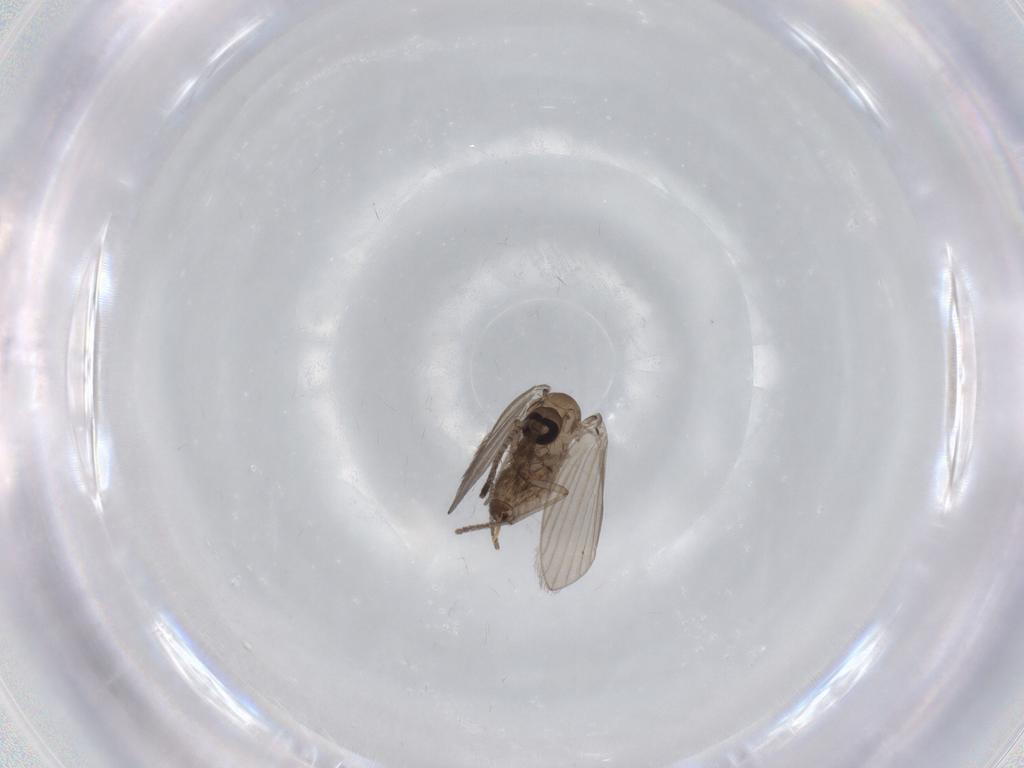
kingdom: Animalia
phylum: Arthropoda
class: Insecta
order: Diptera
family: Psychodidae
